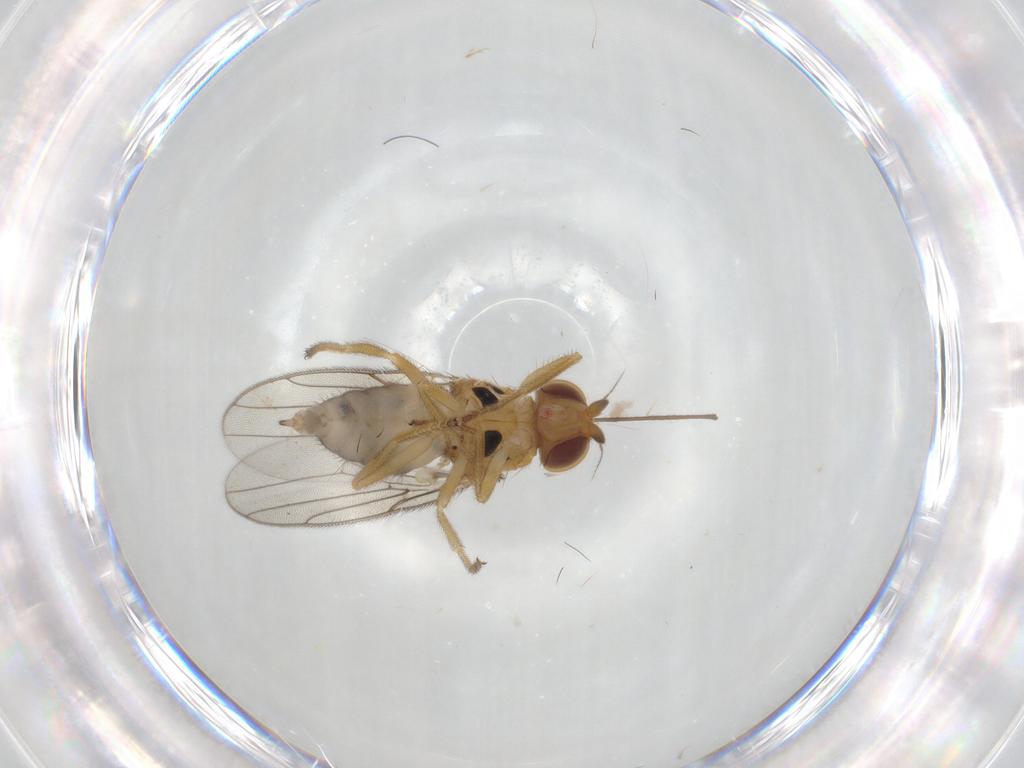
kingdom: Animalia
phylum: Arthropoda
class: Insecta
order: Diptera
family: Chloropidae
